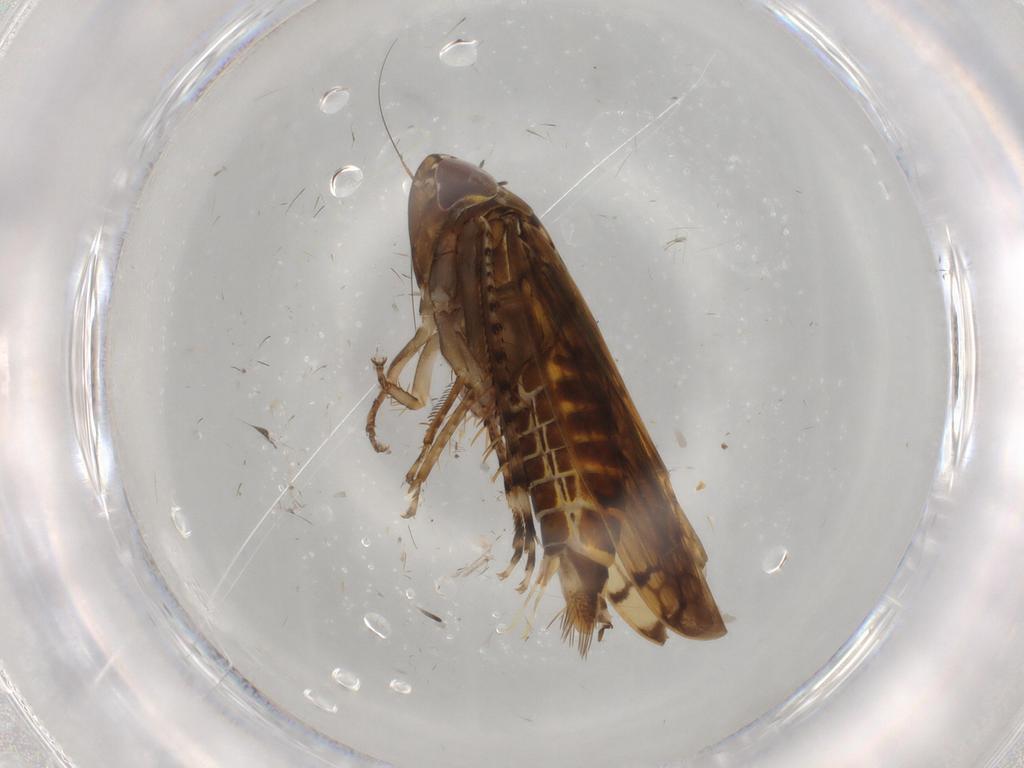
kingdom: Animalia
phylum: Arthropoda
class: Insecta
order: Hemiptera
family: Cicadellidae
